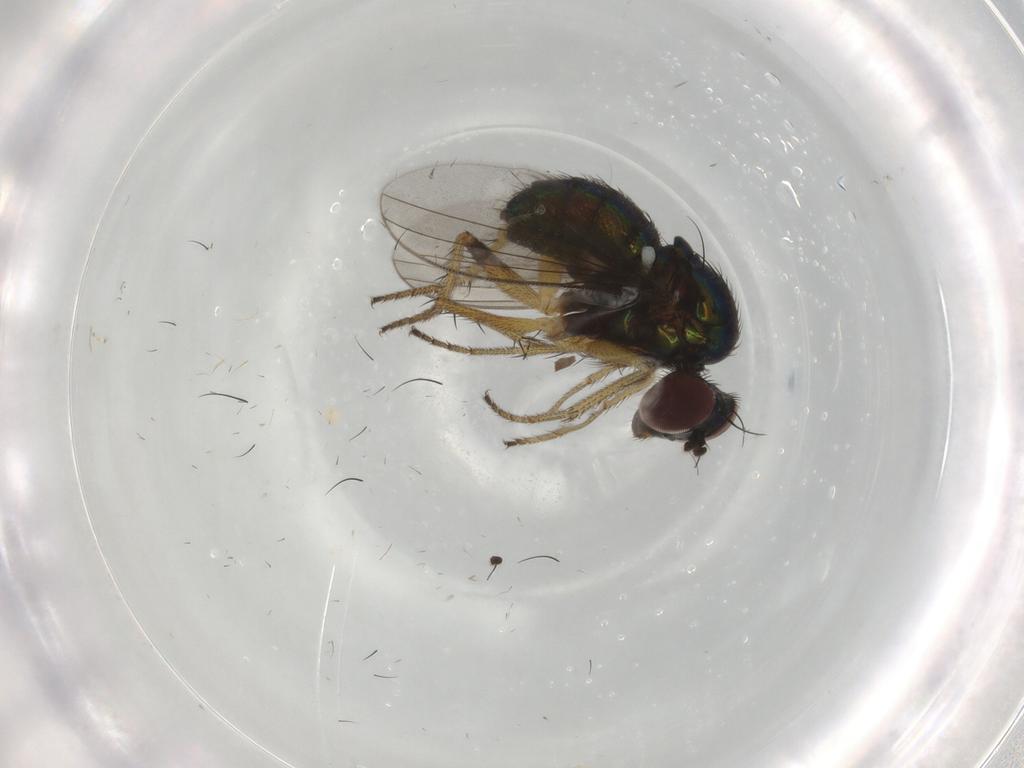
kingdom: Animalia
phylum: Arthropoda
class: Insecta
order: Diptera
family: Dolichopodidae
